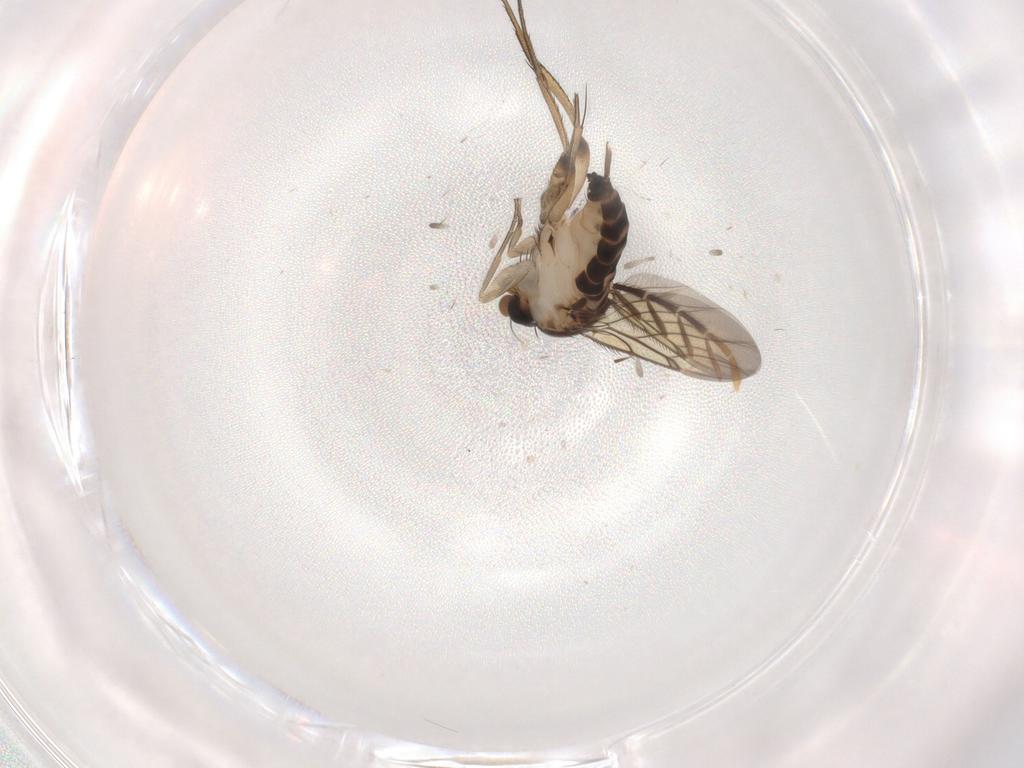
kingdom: Animalia
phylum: Arthropoda
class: Insecta
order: Diptera
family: Phoridae
